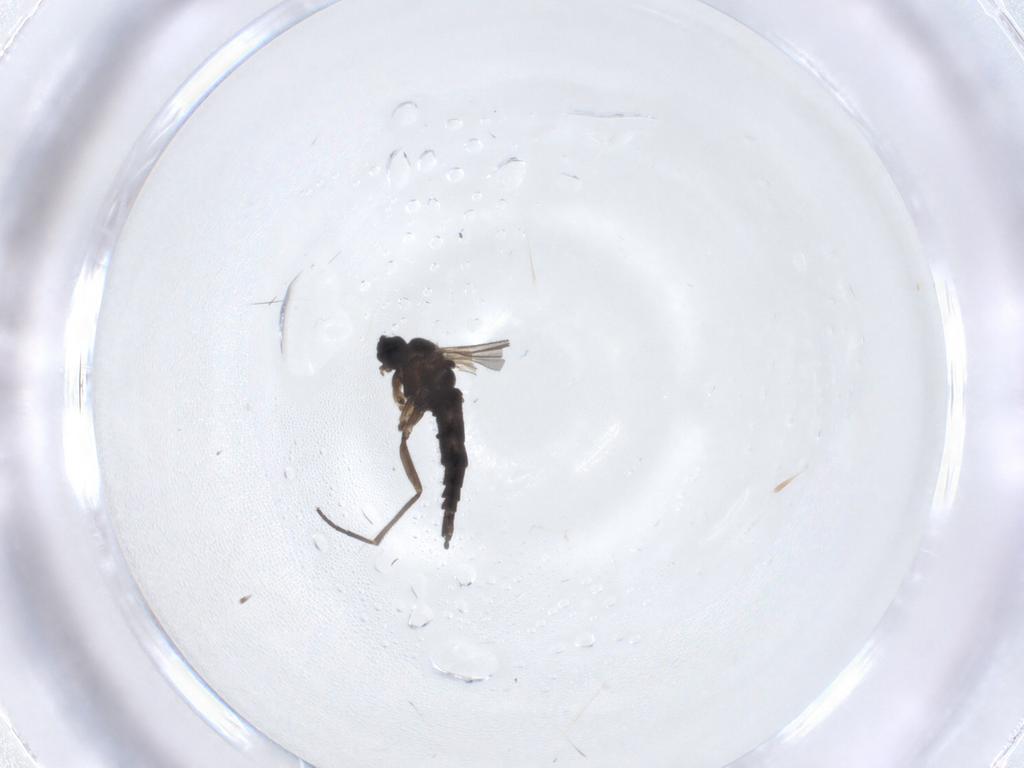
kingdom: Animalia
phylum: Arthropoda
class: Insecta
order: Diptera
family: Sciaridae
